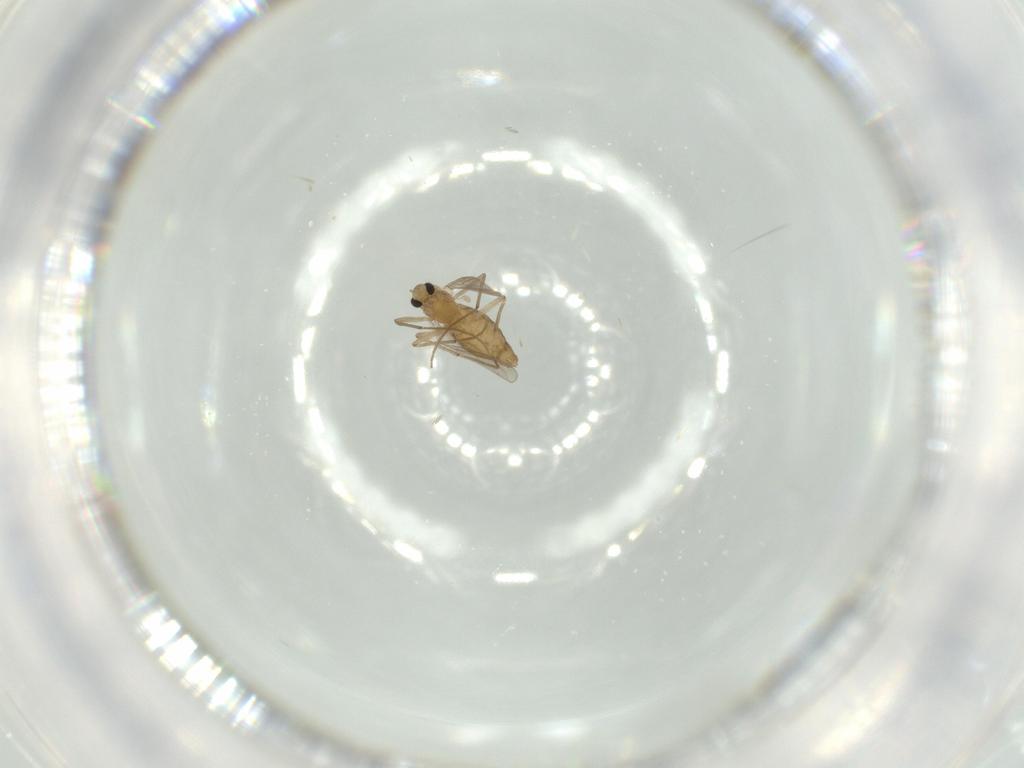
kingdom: Animalia
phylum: Arthropoda
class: Insecta
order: Diptera
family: Chironomidae
